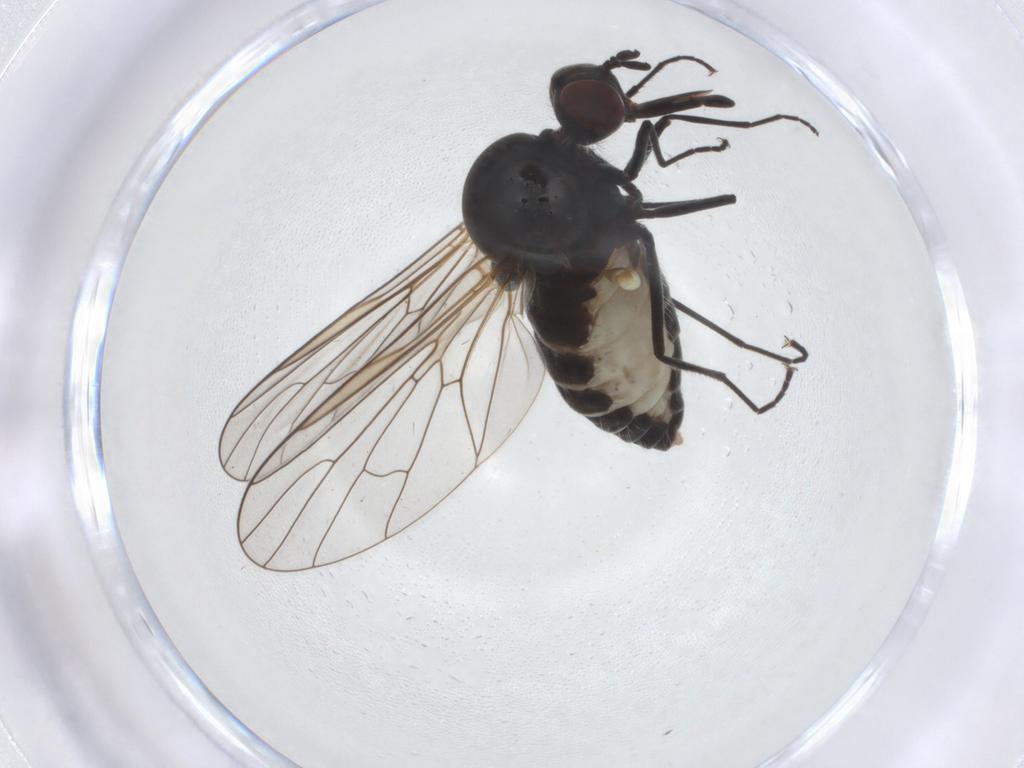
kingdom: Animalia
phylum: Arthropoda
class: Insecta
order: Diptera
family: Bombyliidae
